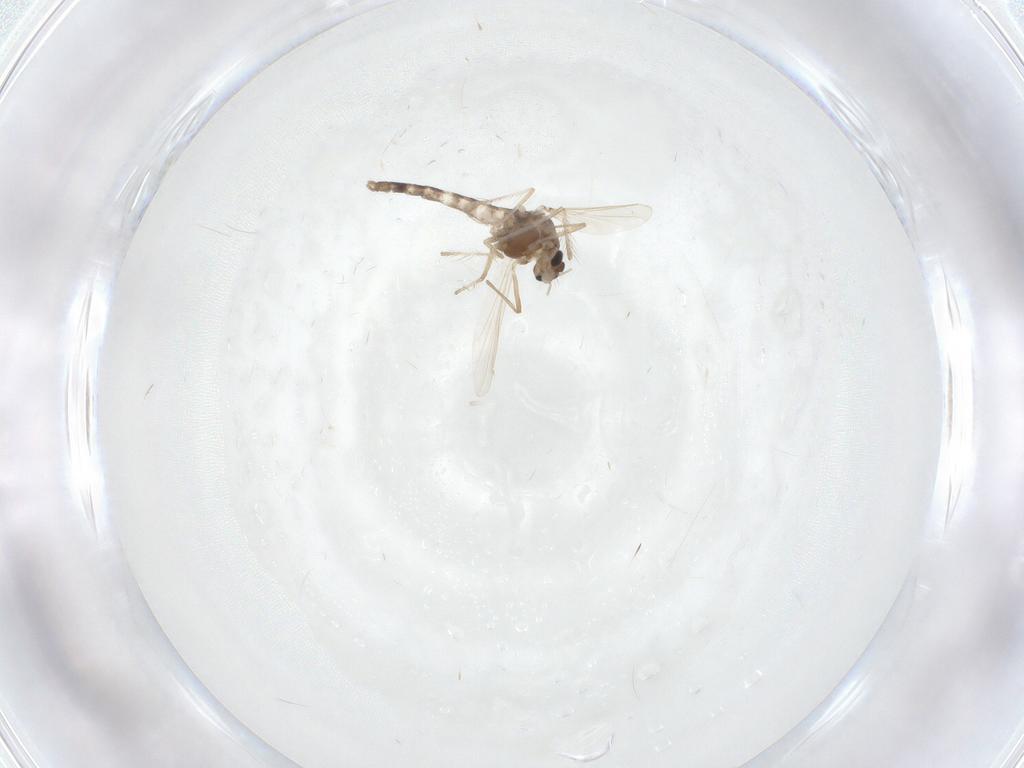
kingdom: Animalia
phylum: Arthropoda
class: Insecta
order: Diptera
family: Chironomidae
